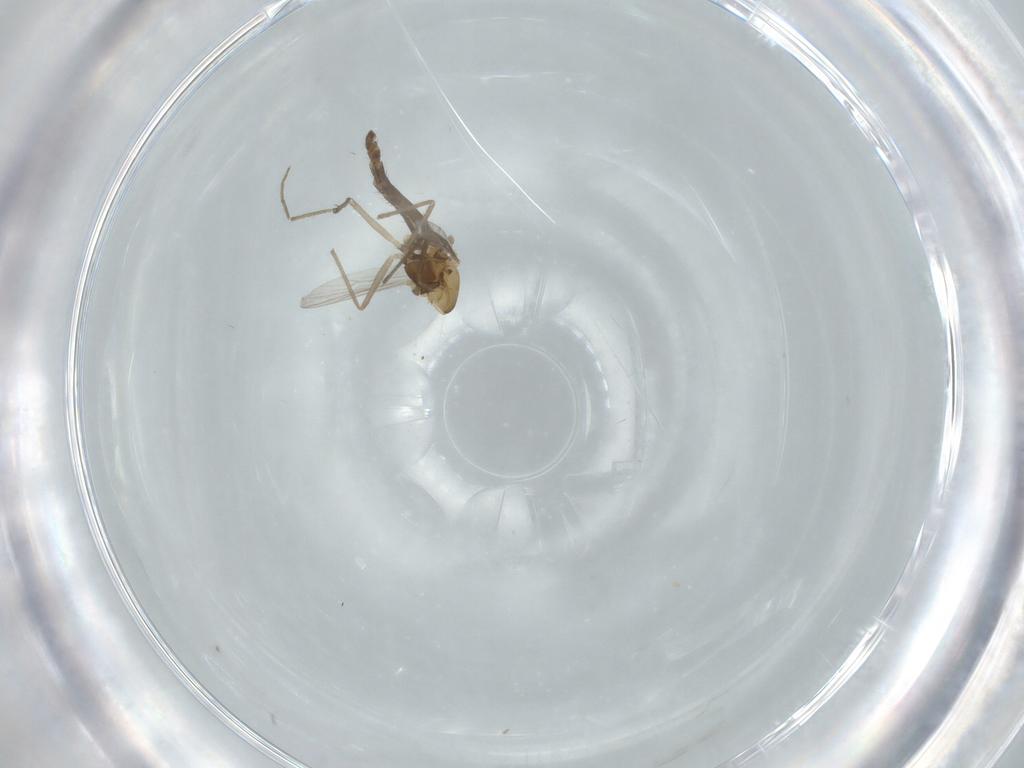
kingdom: Animalia
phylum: Arthropoda
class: Insecta
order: Diptera
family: Chironomidae
